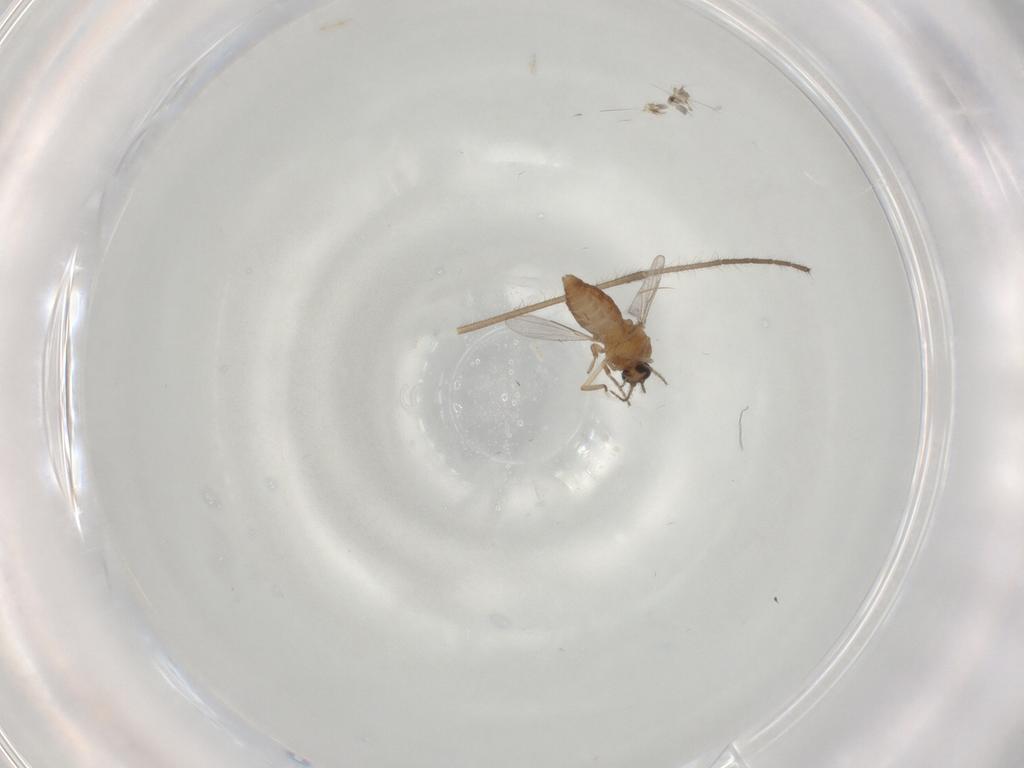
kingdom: Animalia
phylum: Arthropoda
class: Insecta
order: Diptera
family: Ceratopogonidae
